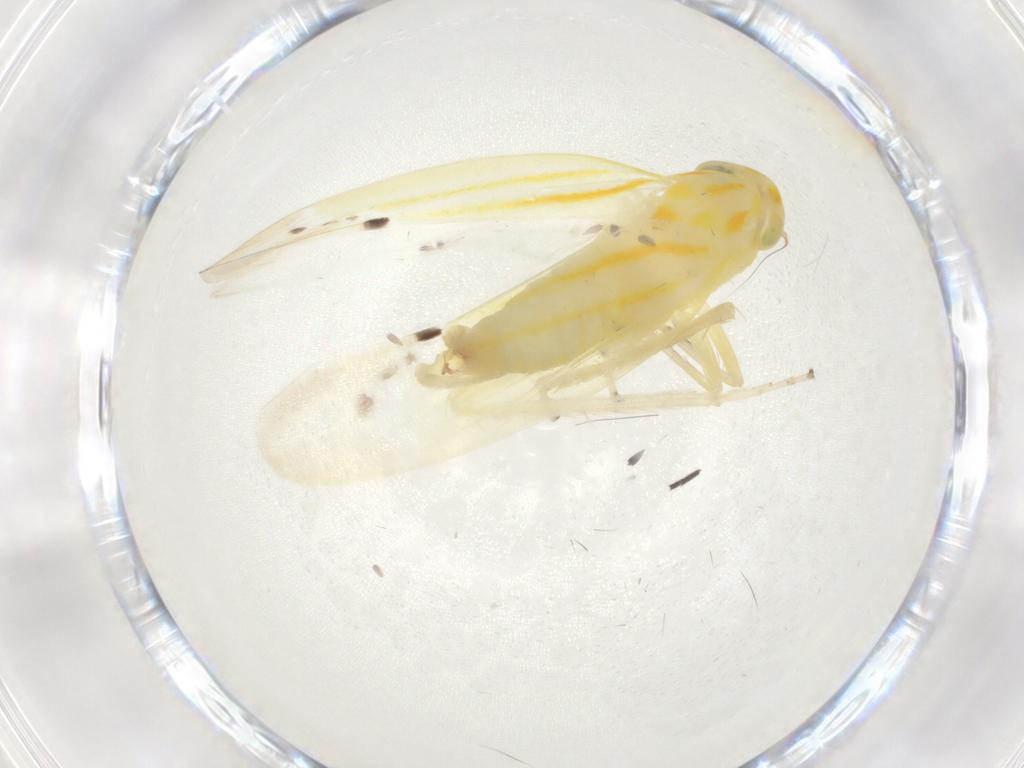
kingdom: Animalia
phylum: Arthropoda
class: Insecta
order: Hemiptera
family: Cicadellidae
